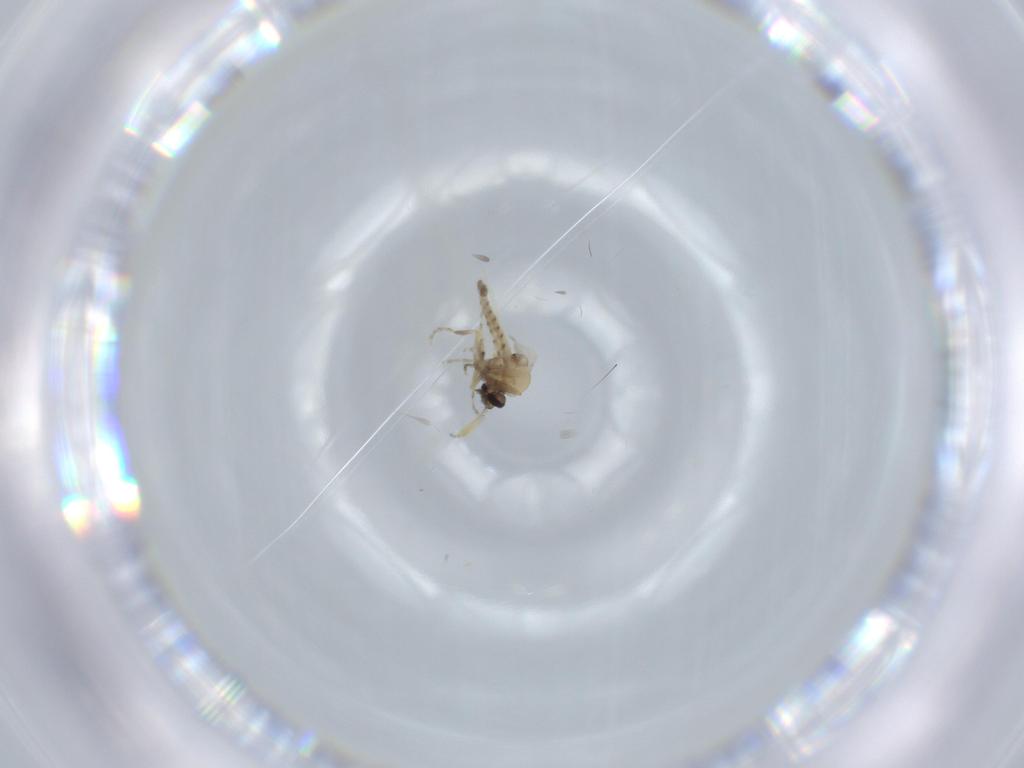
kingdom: Animalia
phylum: Arthropoda
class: Insecta
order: Diptera
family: Ceratopogonidae
